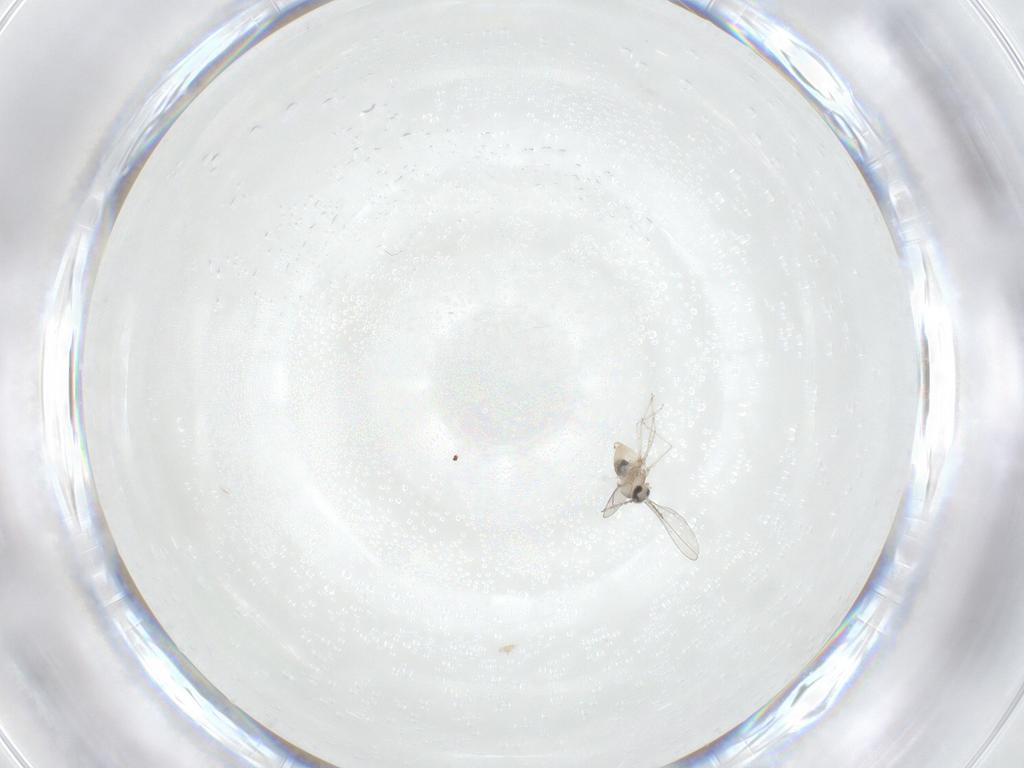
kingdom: Animalia
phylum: Arthropoda
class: Insecta
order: Diptera
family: Cecidomyiidae
